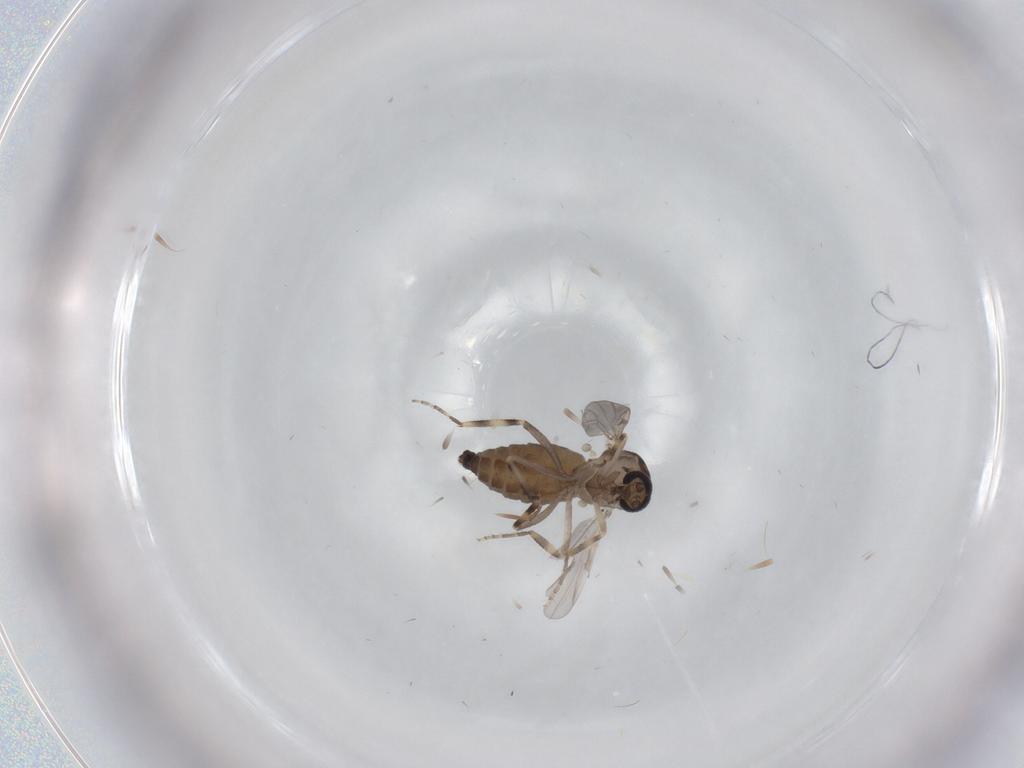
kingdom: Animalia
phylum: Arthropoda
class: Insecta
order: Diptera
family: Ceratopogonidae
